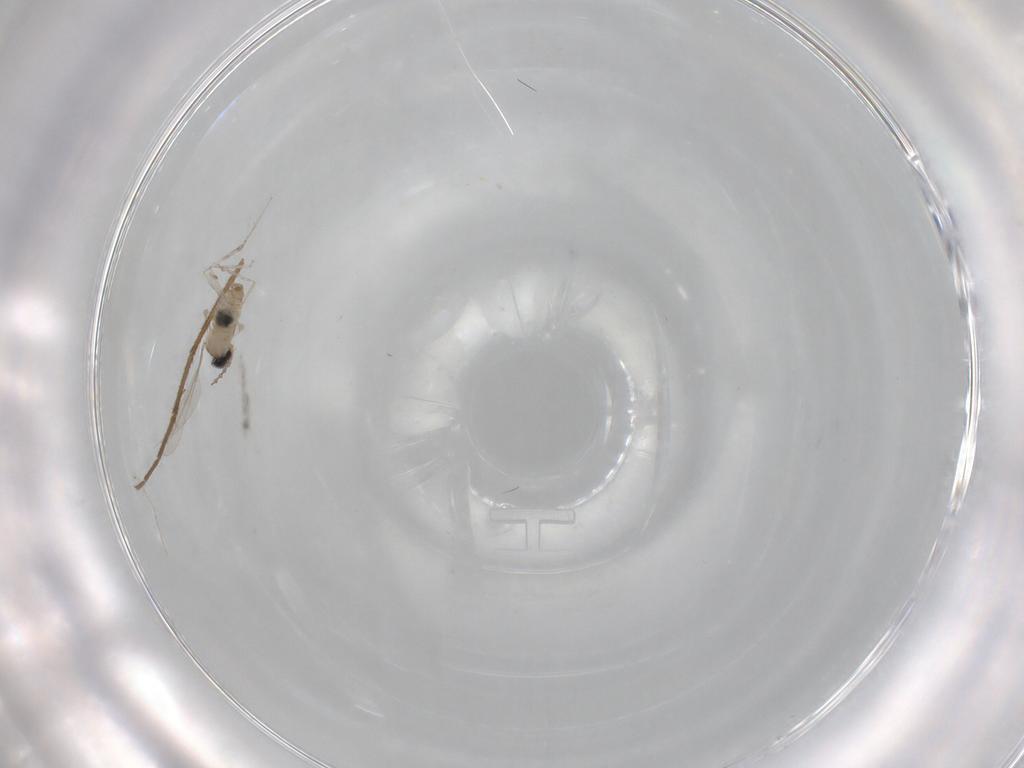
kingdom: Animalia
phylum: Arthropoda
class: Insecta
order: Diptera
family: Cecidomyiidae
